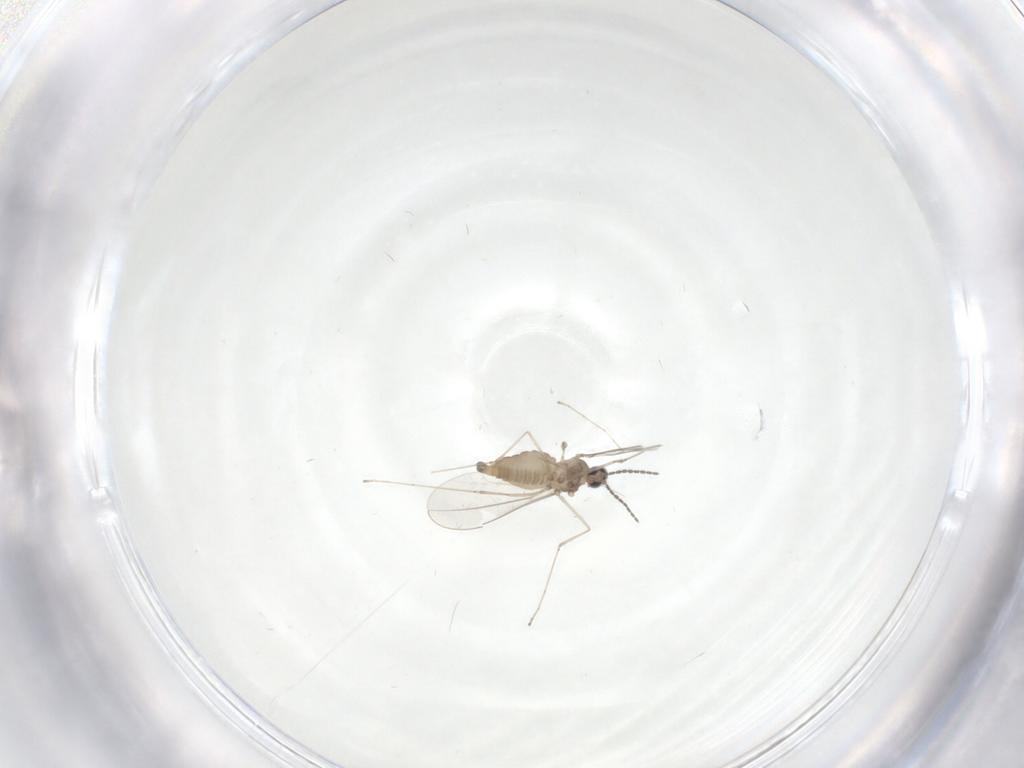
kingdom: Animalia
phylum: Arthropoda
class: Insecta
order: Diptera
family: Cecidomyiidae
